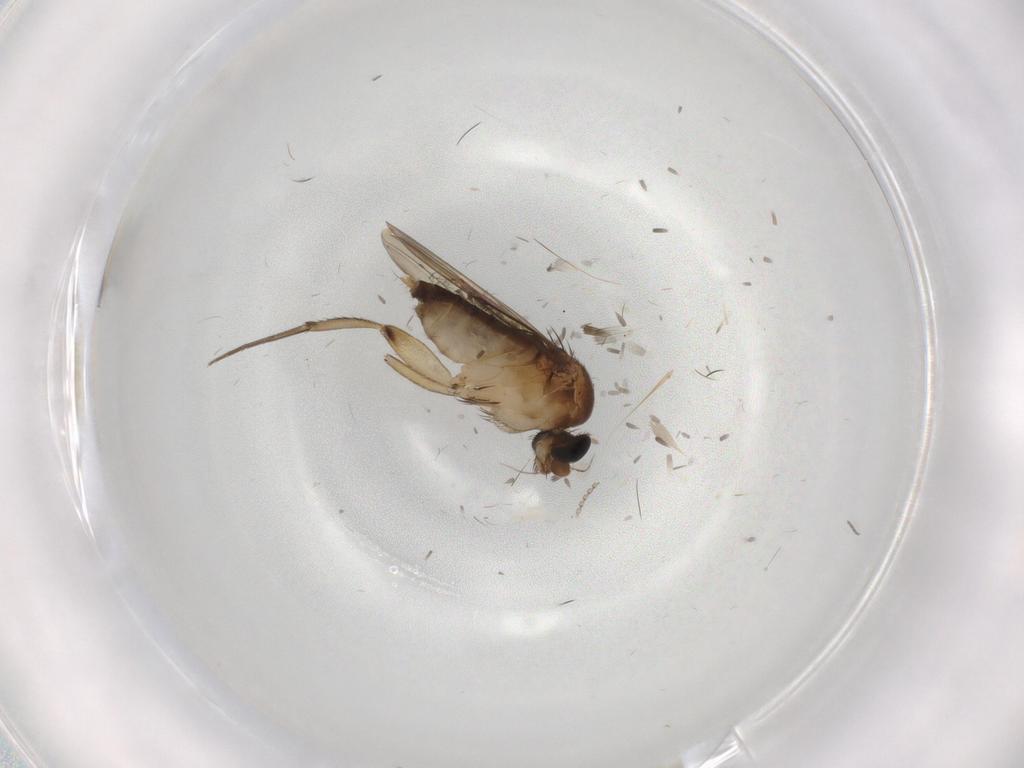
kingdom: Animalia
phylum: Arthropoda
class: Insecta
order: Diptera
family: Phoridae
